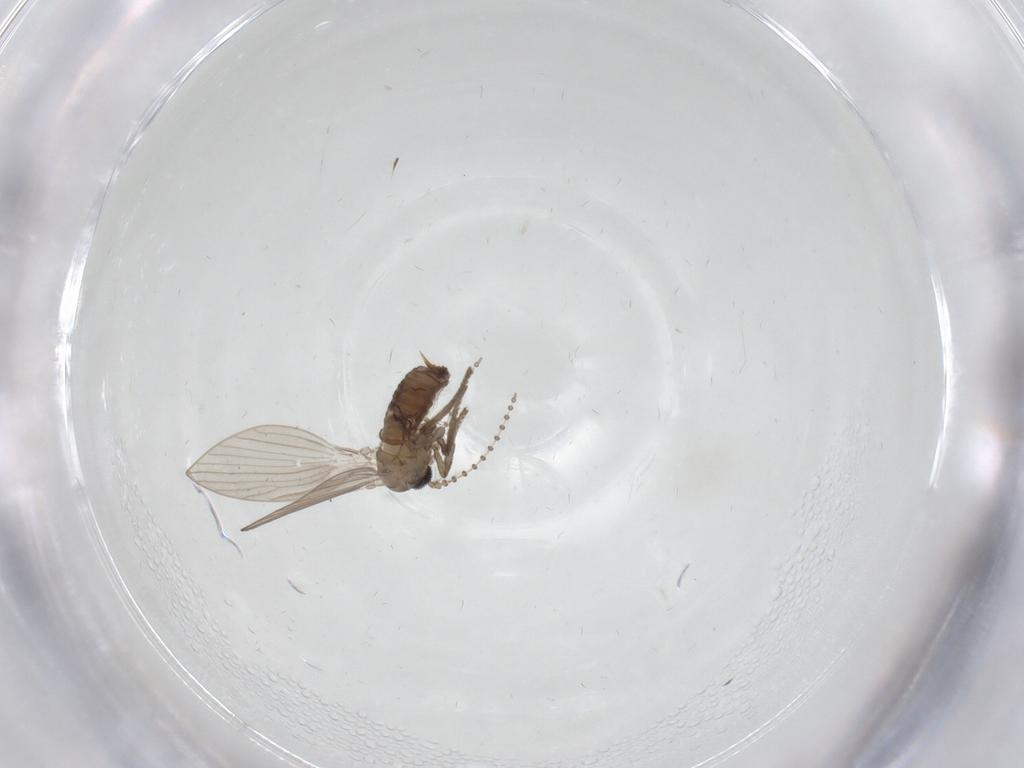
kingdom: Animalia
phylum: Arthropoda
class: Insecta
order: Diptera
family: Psychodidae
